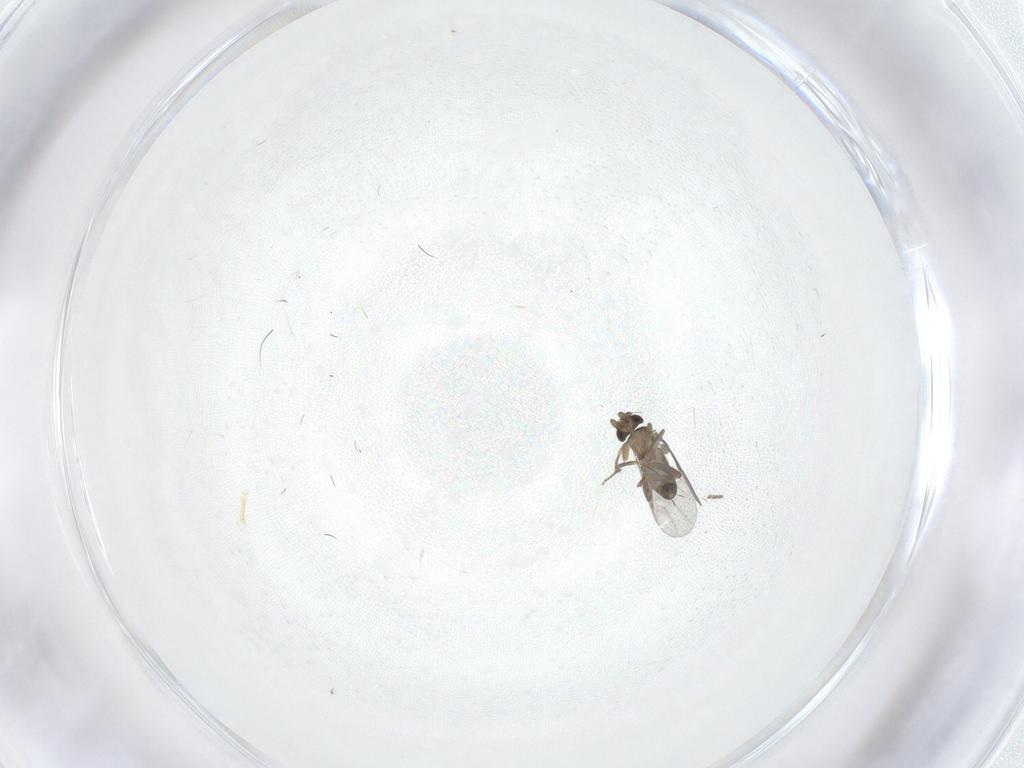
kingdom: Animalia
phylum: Arthropoda
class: Insecta
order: Diptera
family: Chironomidae
